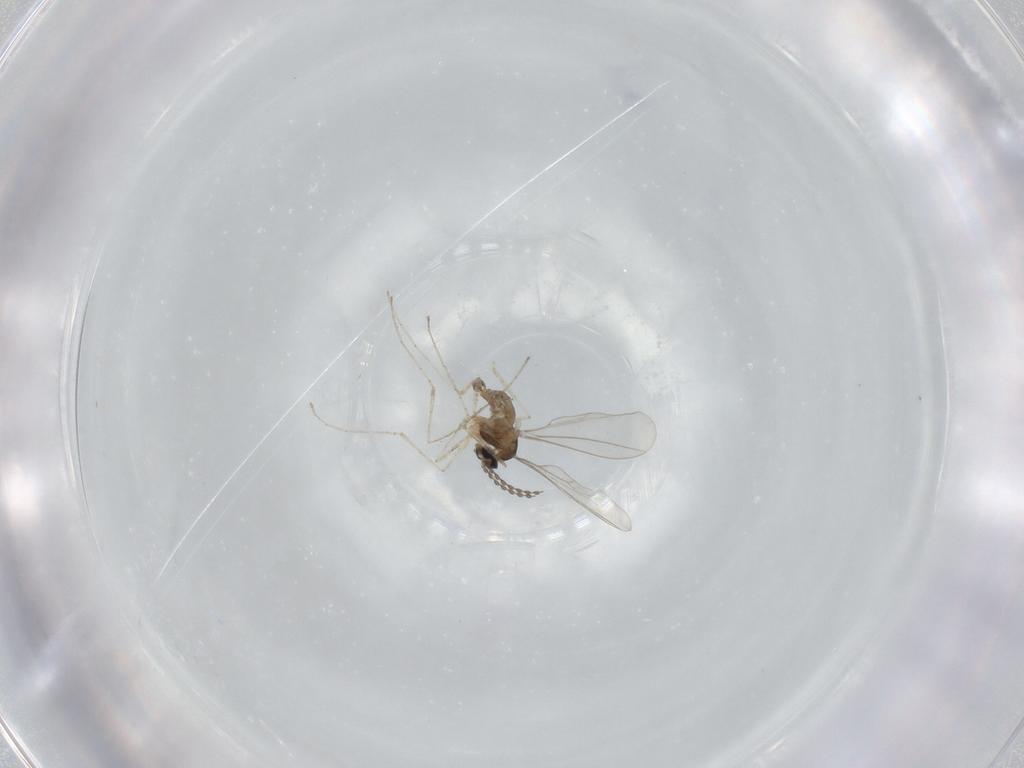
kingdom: Animalia
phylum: Arthropoda
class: Insecta
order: Diptera
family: Cecidomyiidae
